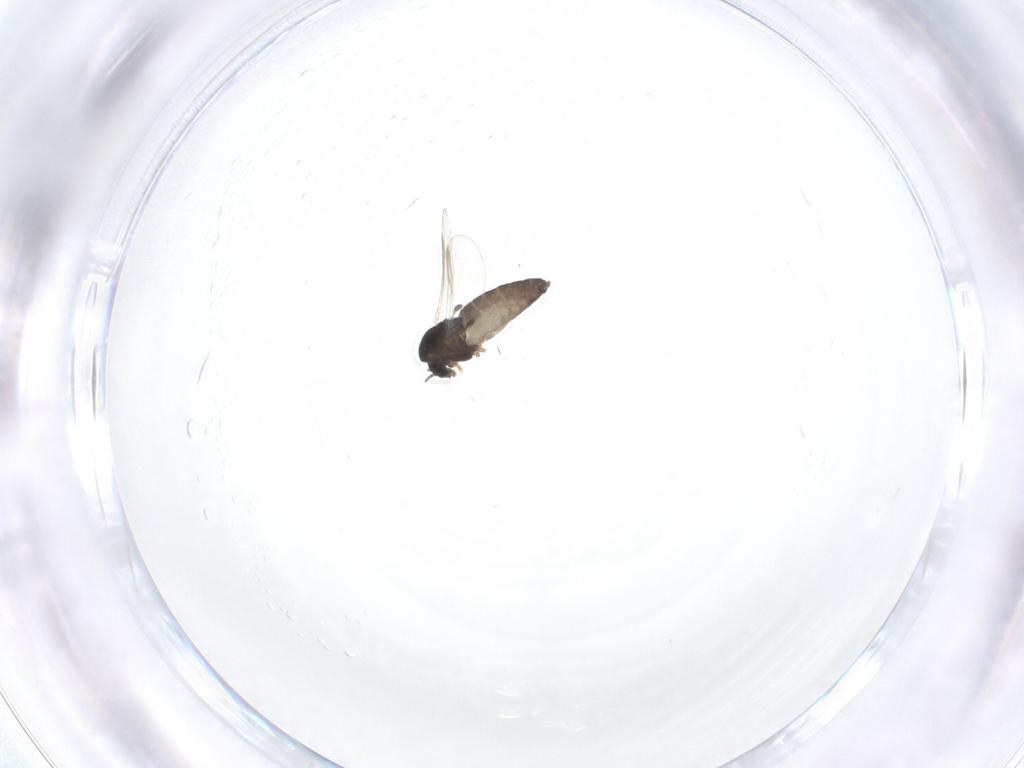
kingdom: Animalia
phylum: Arthropoda
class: Insecta
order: Diptera
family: Chironomidae
